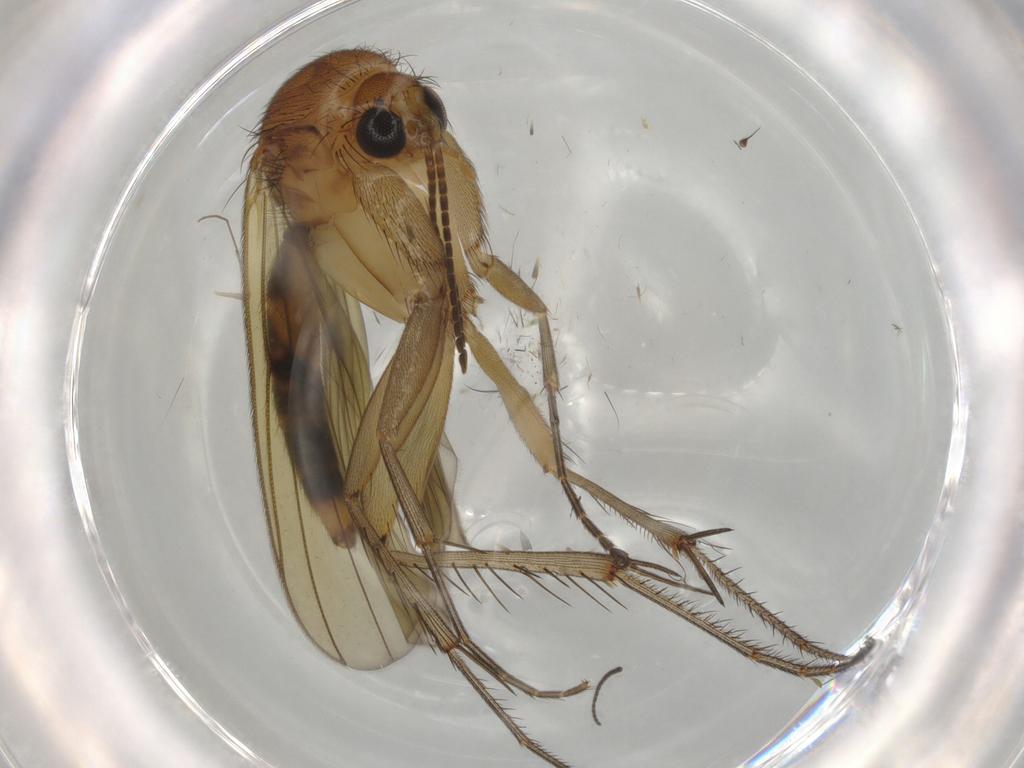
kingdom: Animalia
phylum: Arthropoda
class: Insecta
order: Diptera
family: Mycetophilidae
